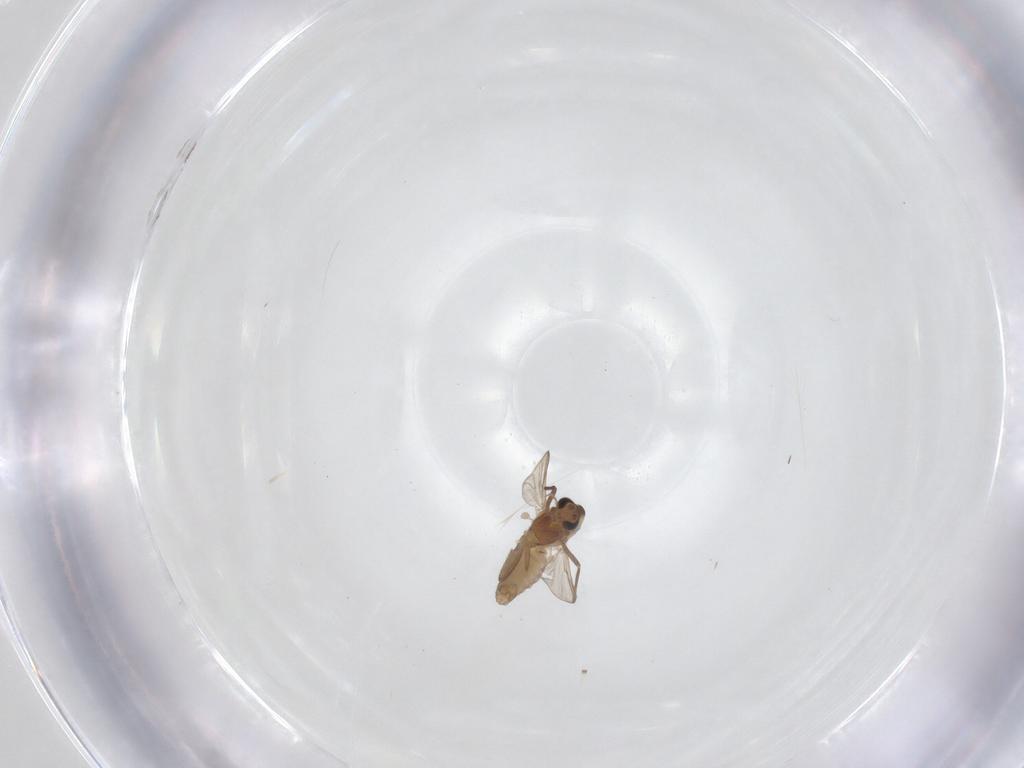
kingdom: Animalia
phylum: Arthropoda
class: Insecta
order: Diptera
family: Chironomidae
